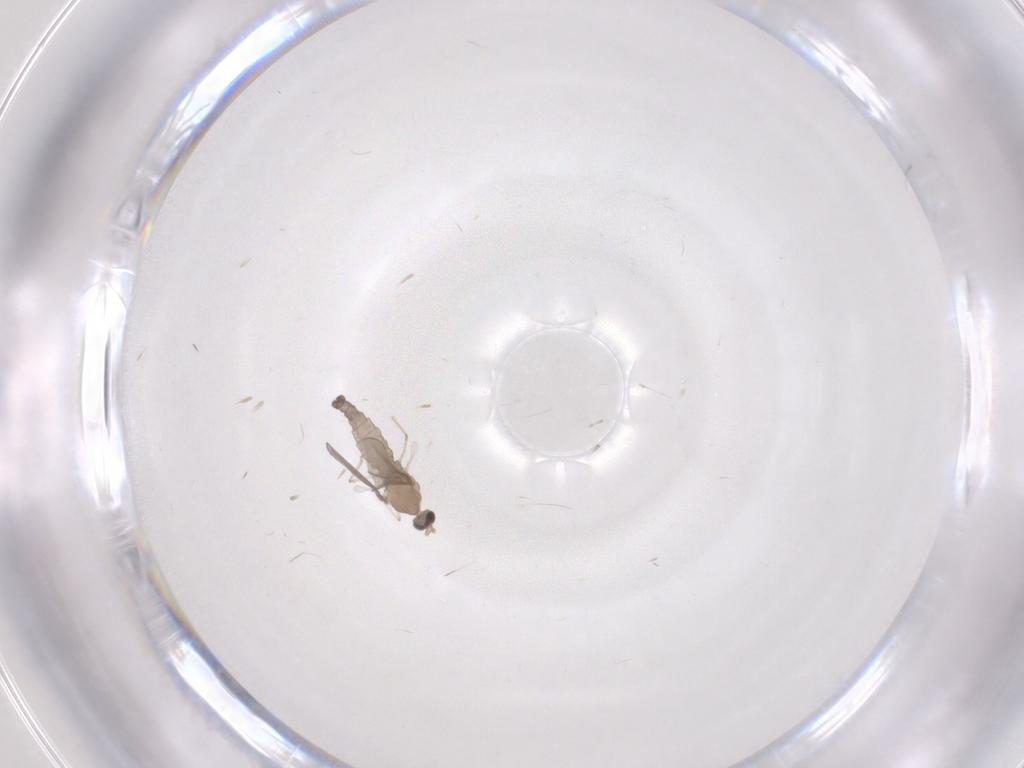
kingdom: Animalia
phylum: Arthropoda
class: Insecta
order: Diptera
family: Cecidomyiidae
